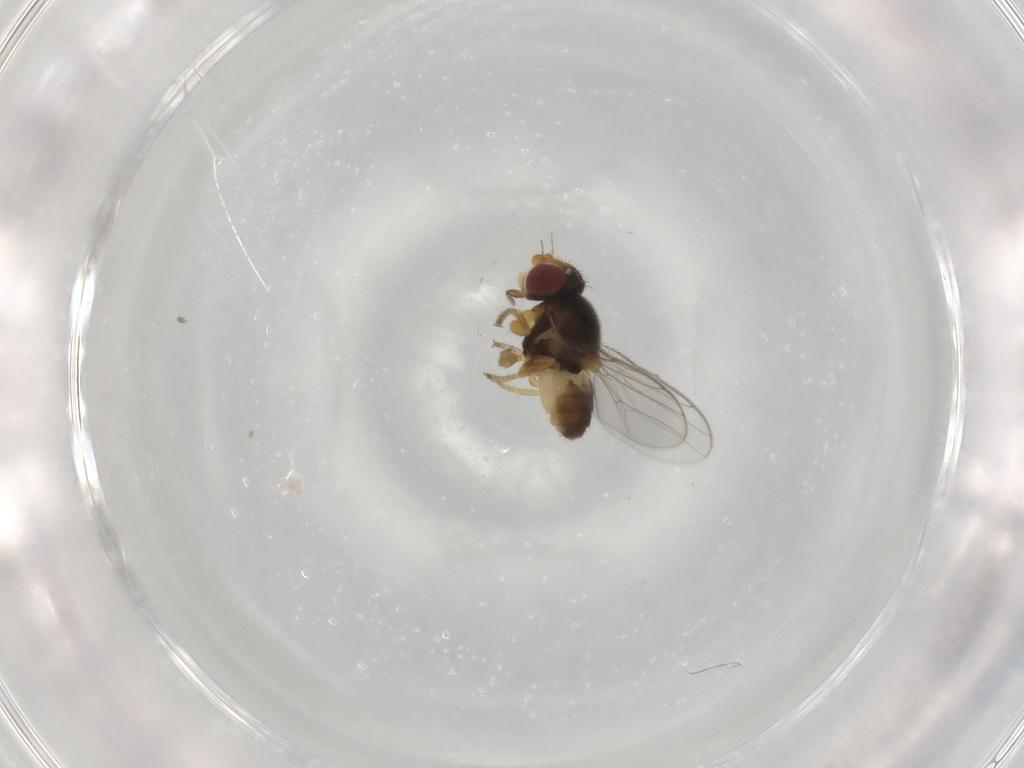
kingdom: Animalia
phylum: Arthropoda
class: Insecta
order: Diptera
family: Chloropidae
